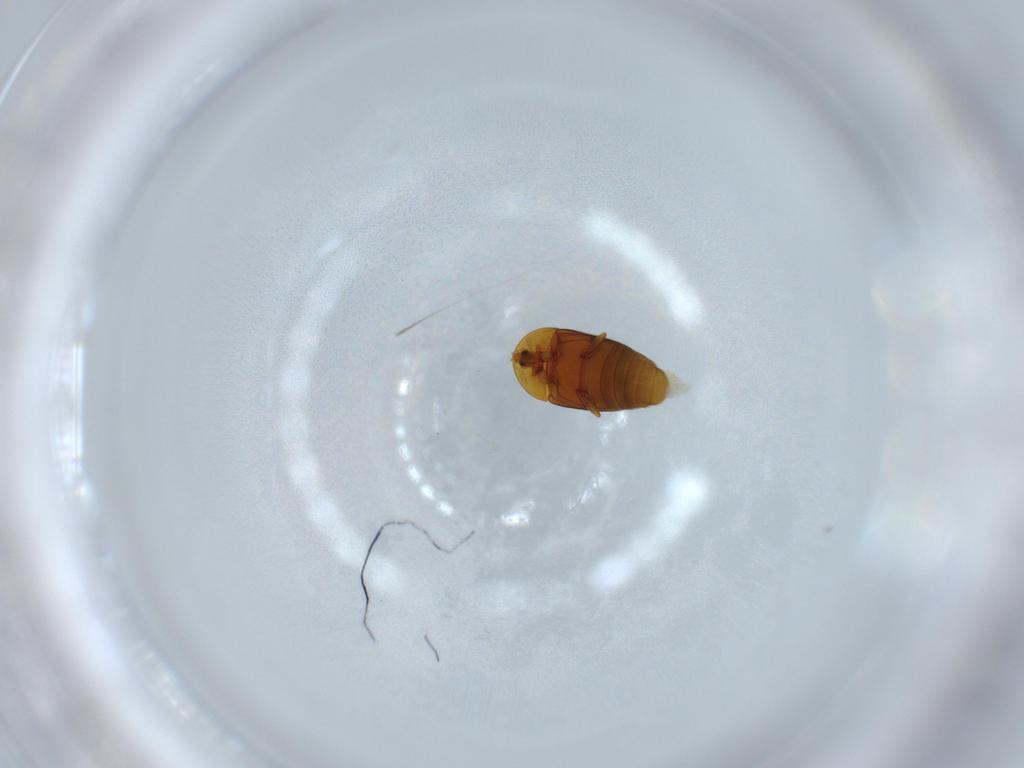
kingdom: Animalia
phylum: Arthropoda
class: Insecta
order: Coleoptera
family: Corylophidae
